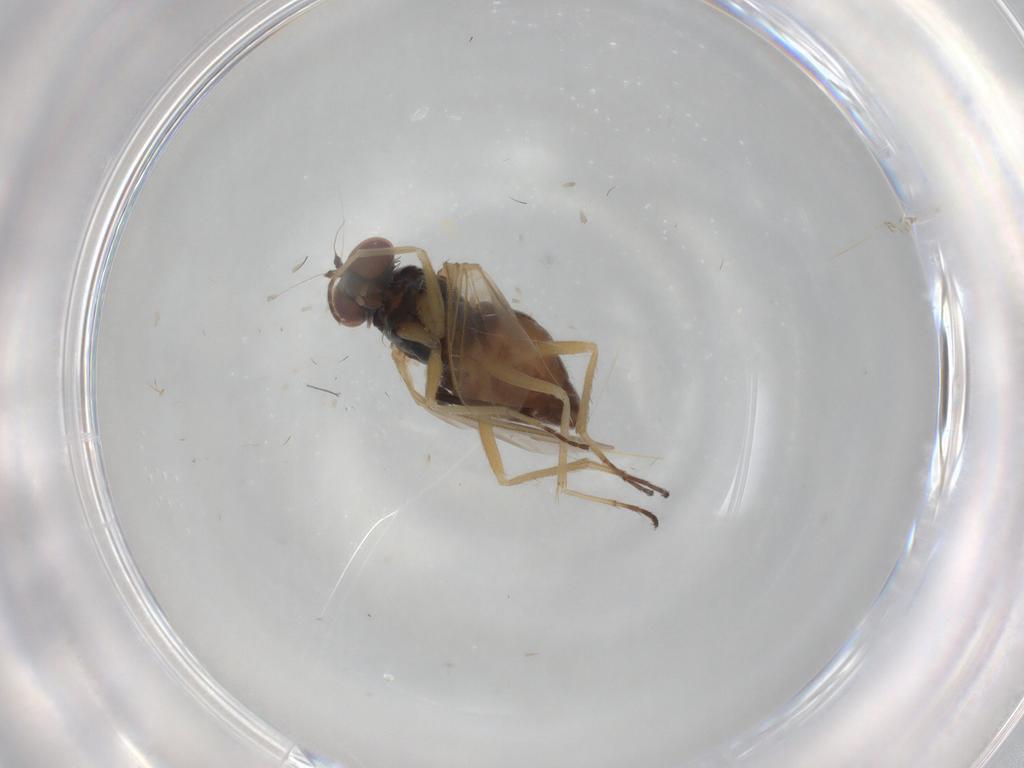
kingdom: Animalia
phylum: Arthropoda
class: Insecta
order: Diptera
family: Dolichopodidae
